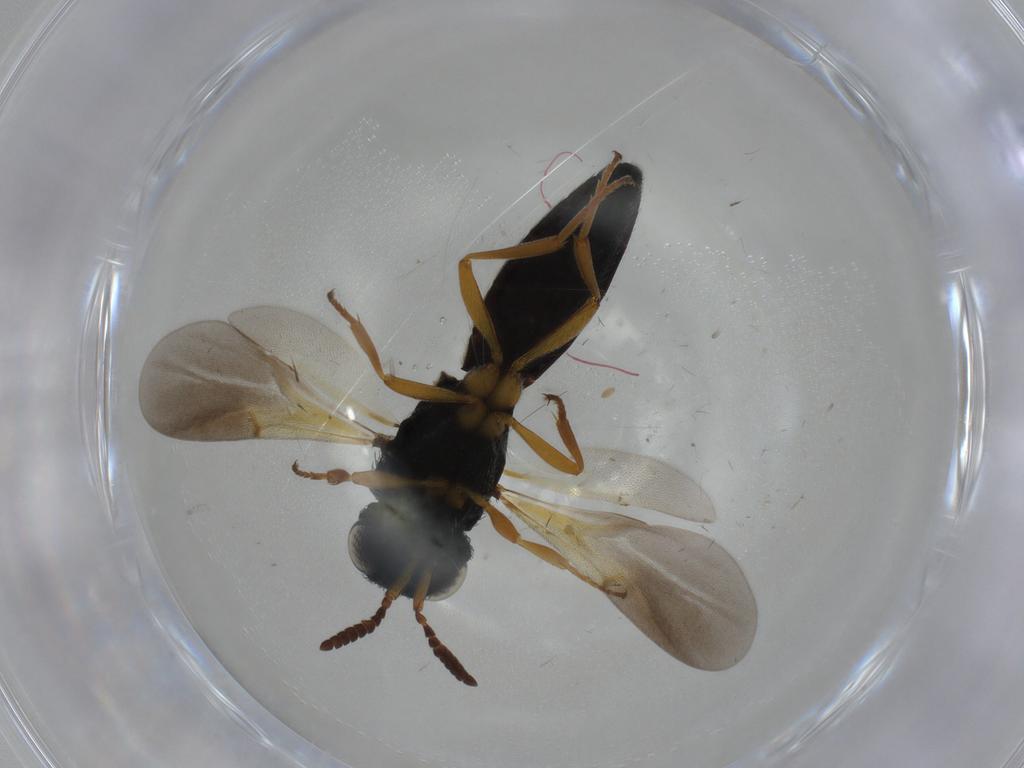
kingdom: Animalia
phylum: Arthropoda
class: Insecta
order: Hymenoptera
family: Scelionidae
